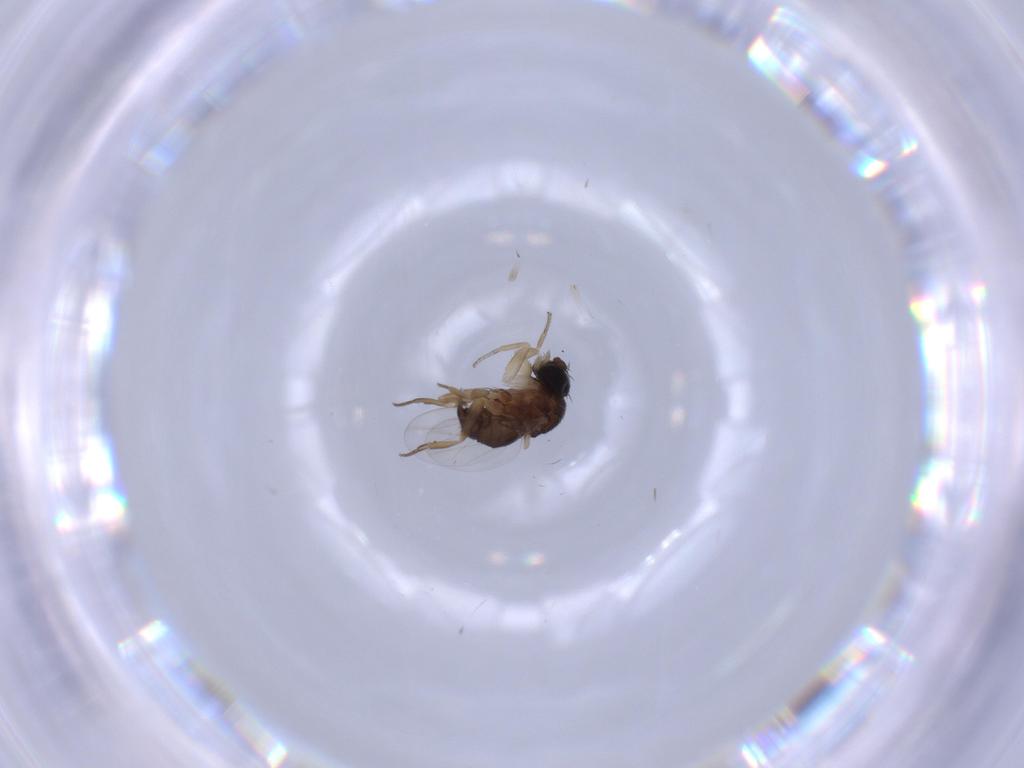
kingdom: Animalia
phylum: Arthropoda
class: Insecta
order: Diptera
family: Phoridae
